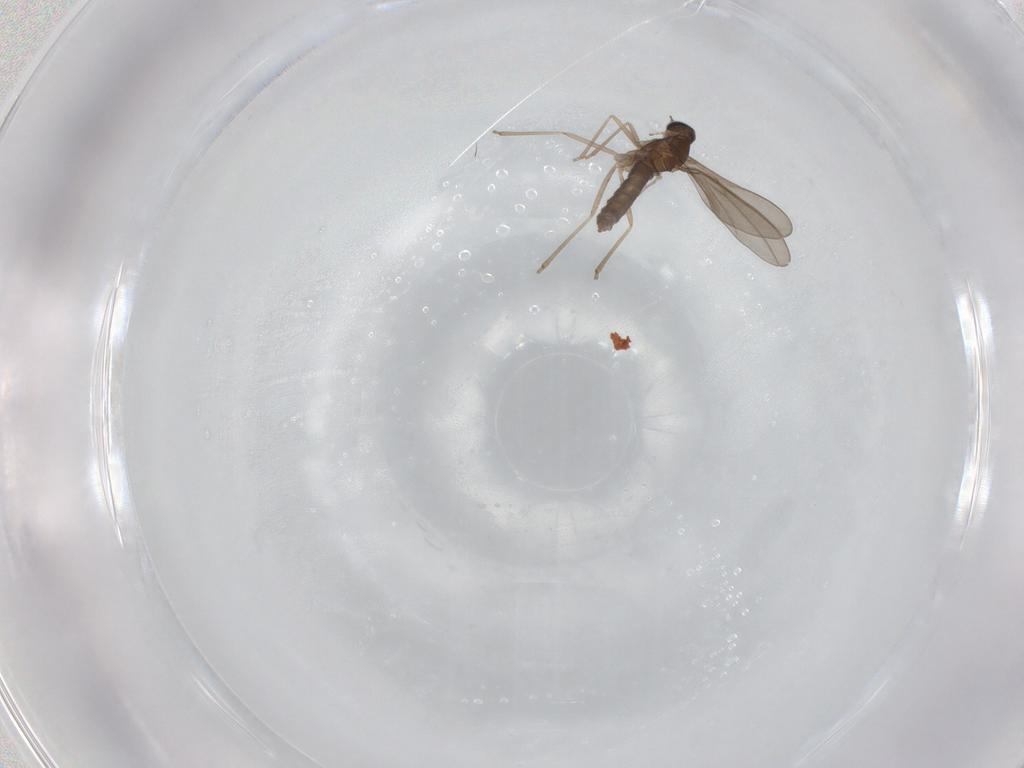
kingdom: Animalia
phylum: Arthropoda
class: Insecta
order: Diptera
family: Cecidomyiidae
